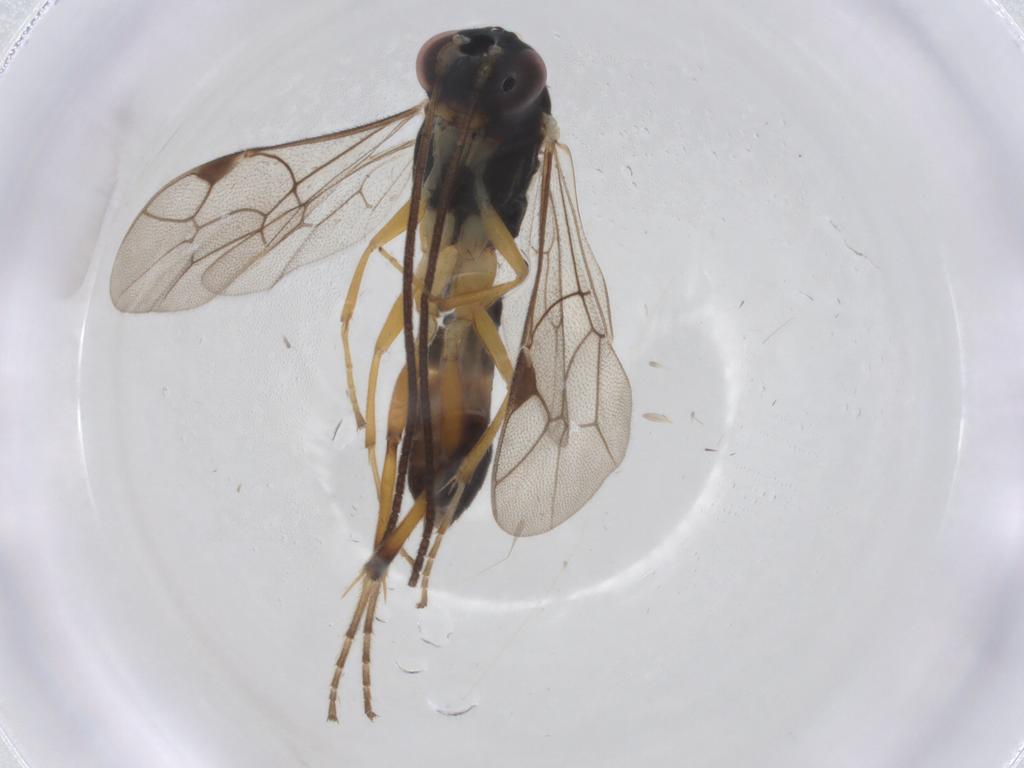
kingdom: Animalia
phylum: Arthropoda
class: Insecta
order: Hymenoptera
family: Ichneumonidae
